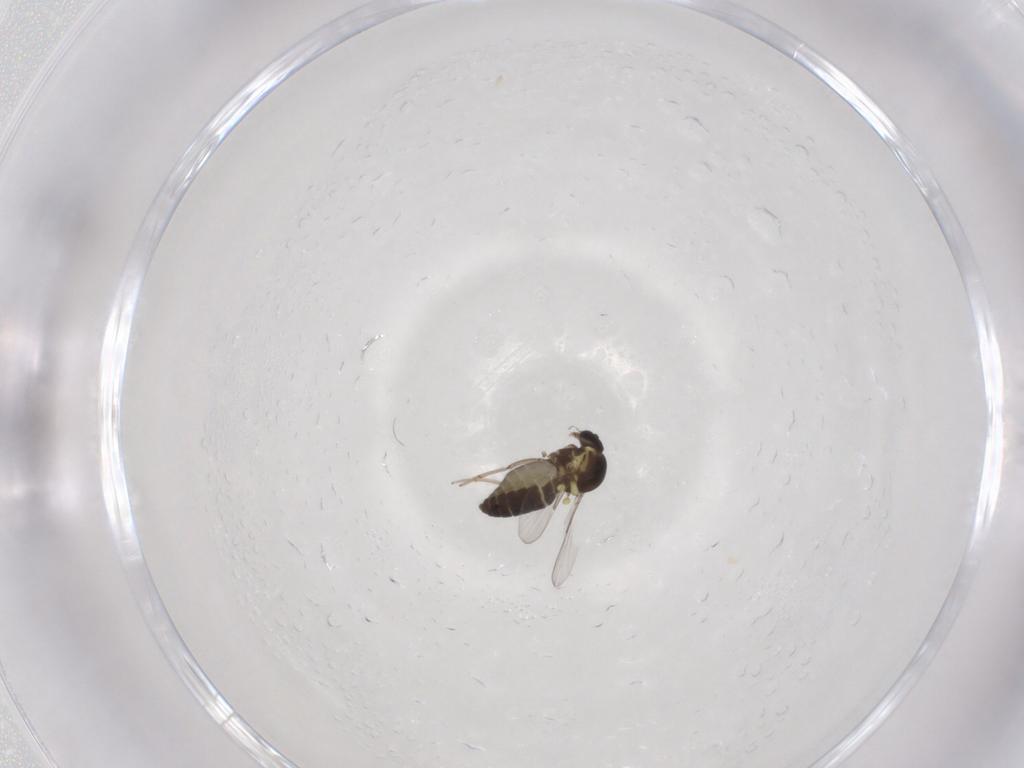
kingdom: Animalia
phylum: Arthropoda
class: Insecta
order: Diptera
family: Ceratopogonidae
